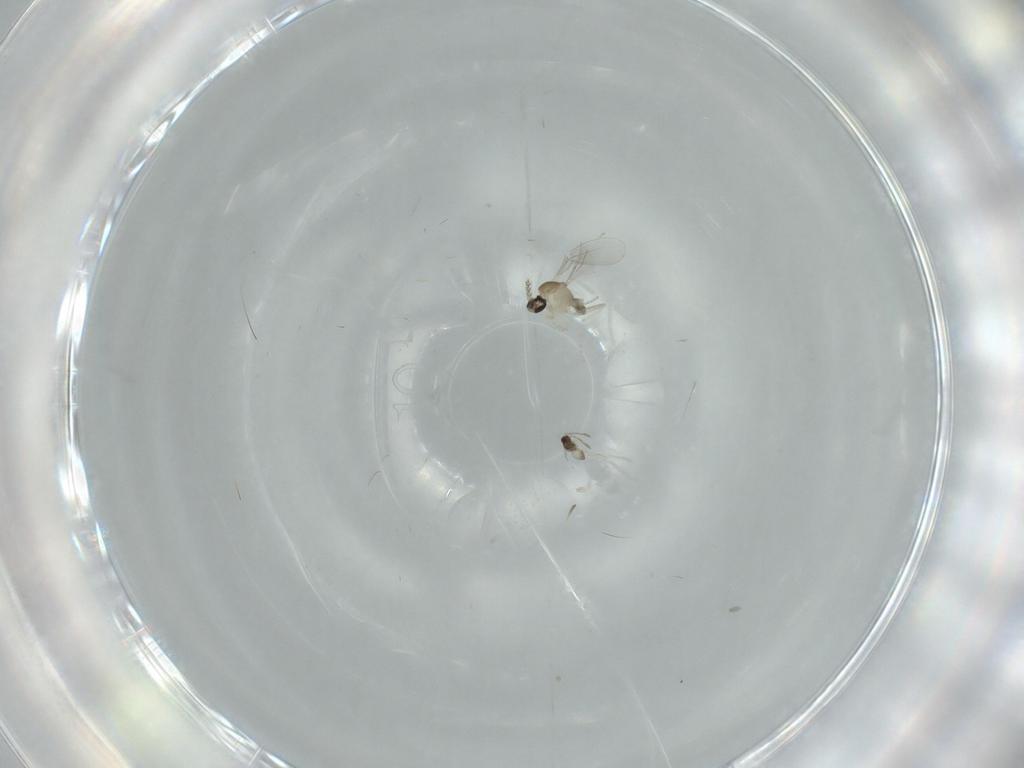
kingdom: Animalia
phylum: Arthropoda
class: Insecta
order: Diptera
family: Cecidomyiidae
